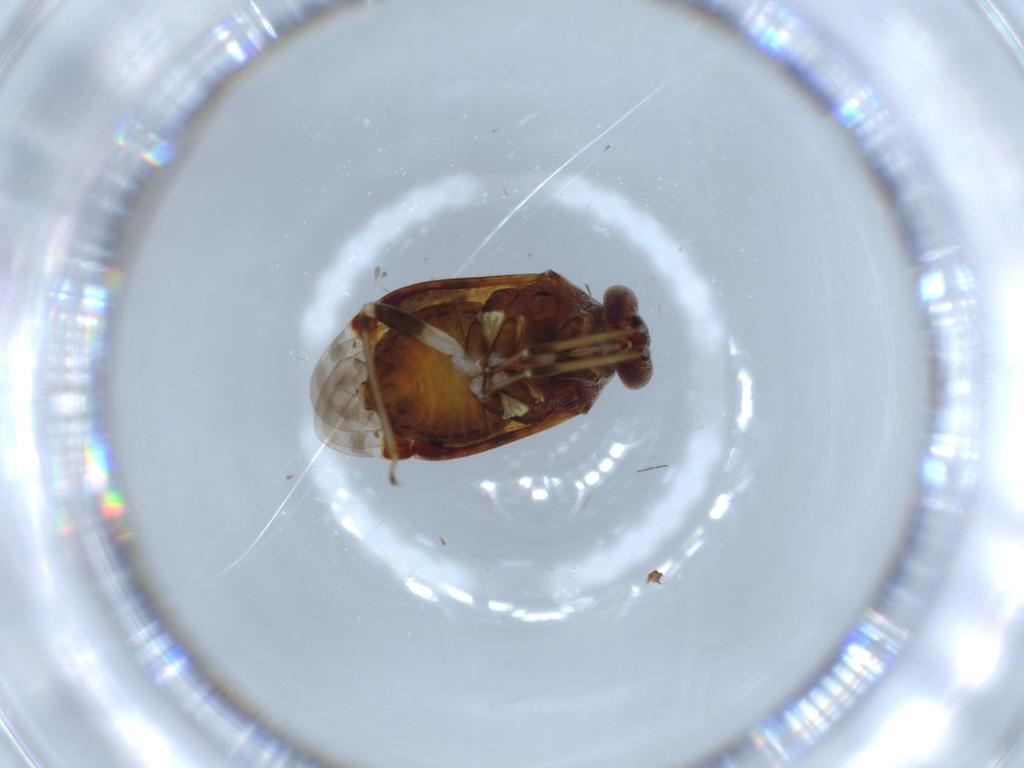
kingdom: Animalia
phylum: Arthropoda
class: Insecta
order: Hemiptera
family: Miridae
